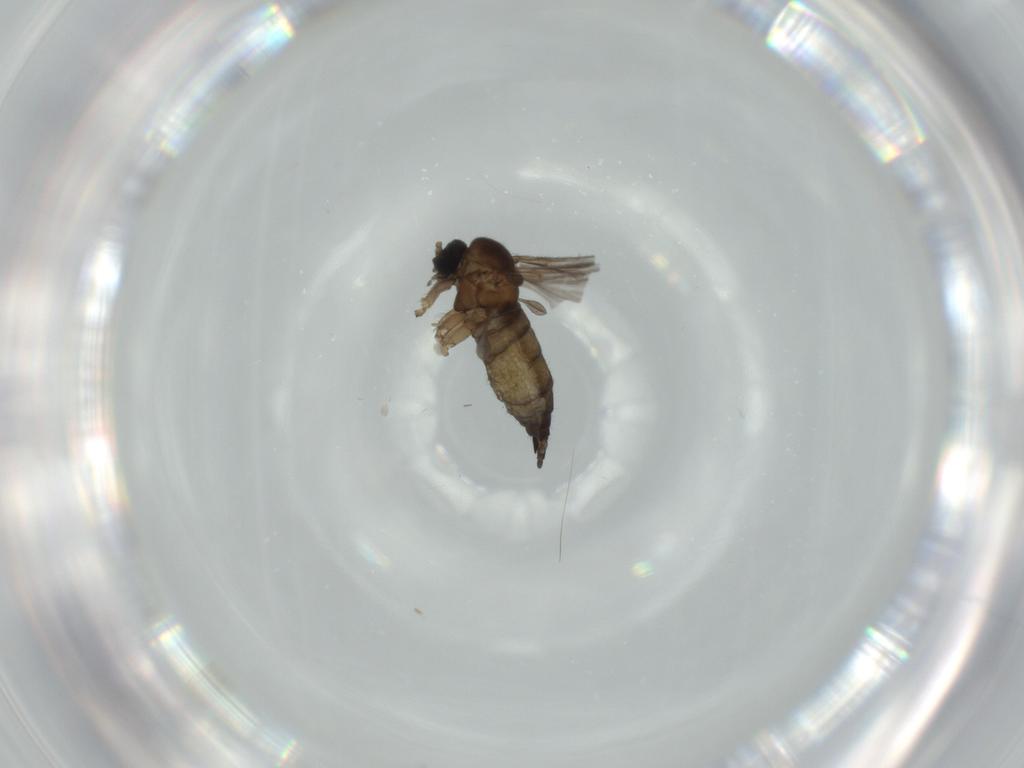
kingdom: Animalia
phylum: Arthropoda
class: Insecta
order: Diptera
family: Sciaridae
